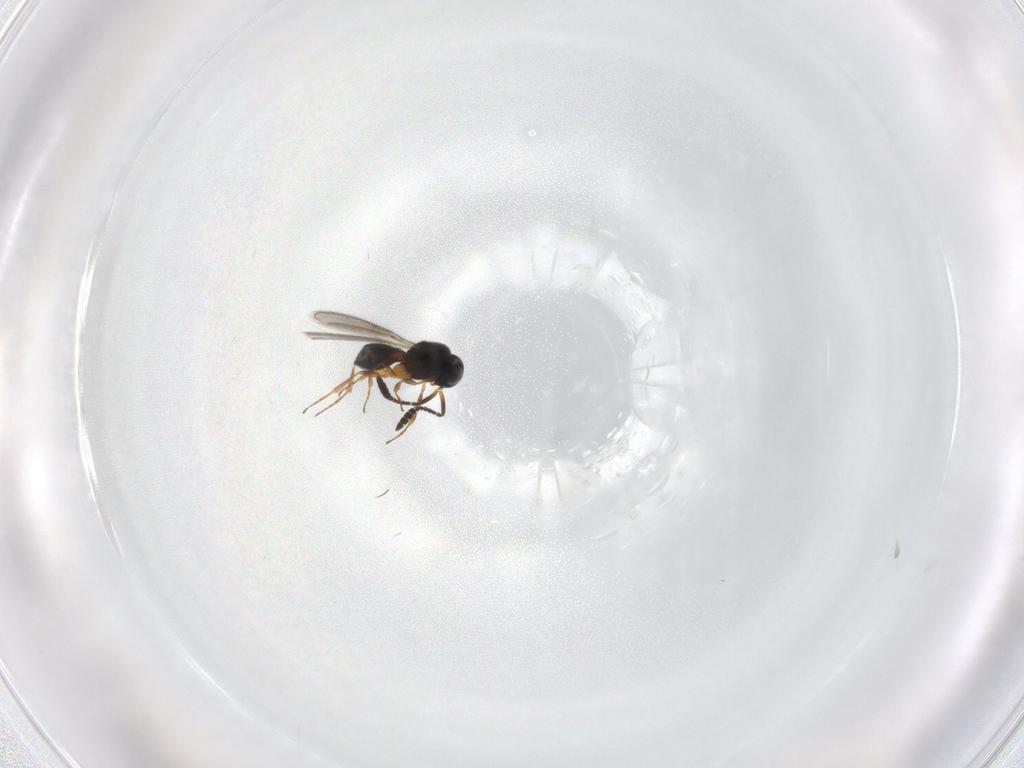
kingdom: Animalia
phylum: Arthropoda
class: Insecta
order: Hymenoptera
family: Scelionidae
